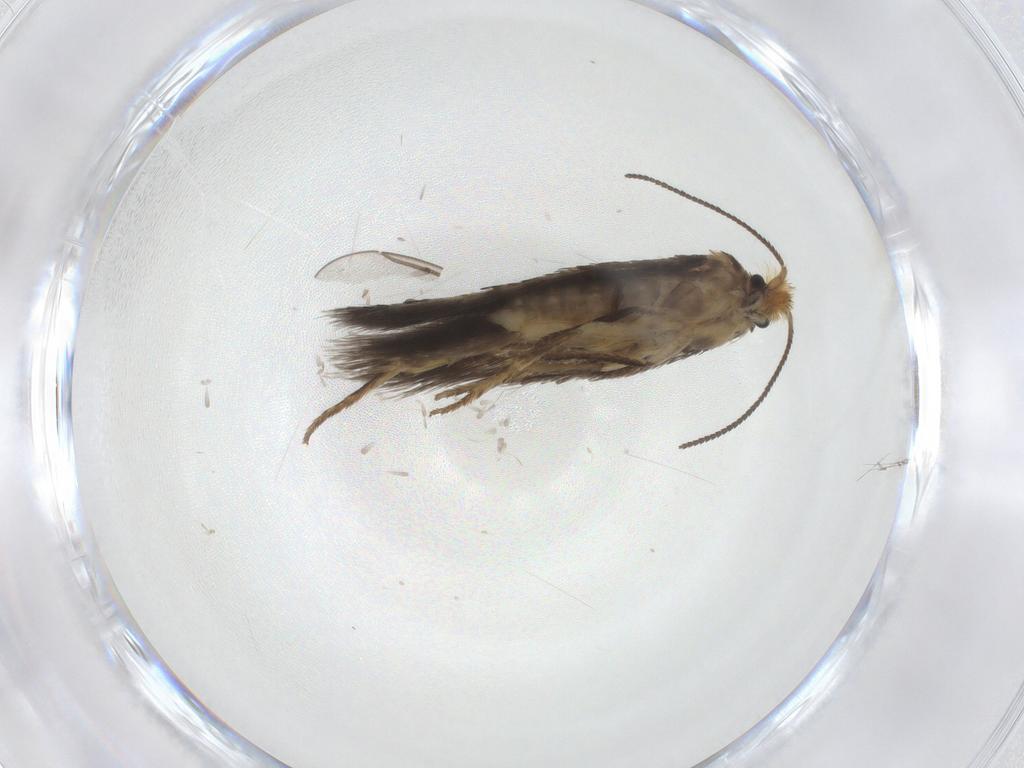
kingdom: Animalia
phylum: Arthropoda
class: Insecta
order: Lepidoptera
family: Nepticulidae
